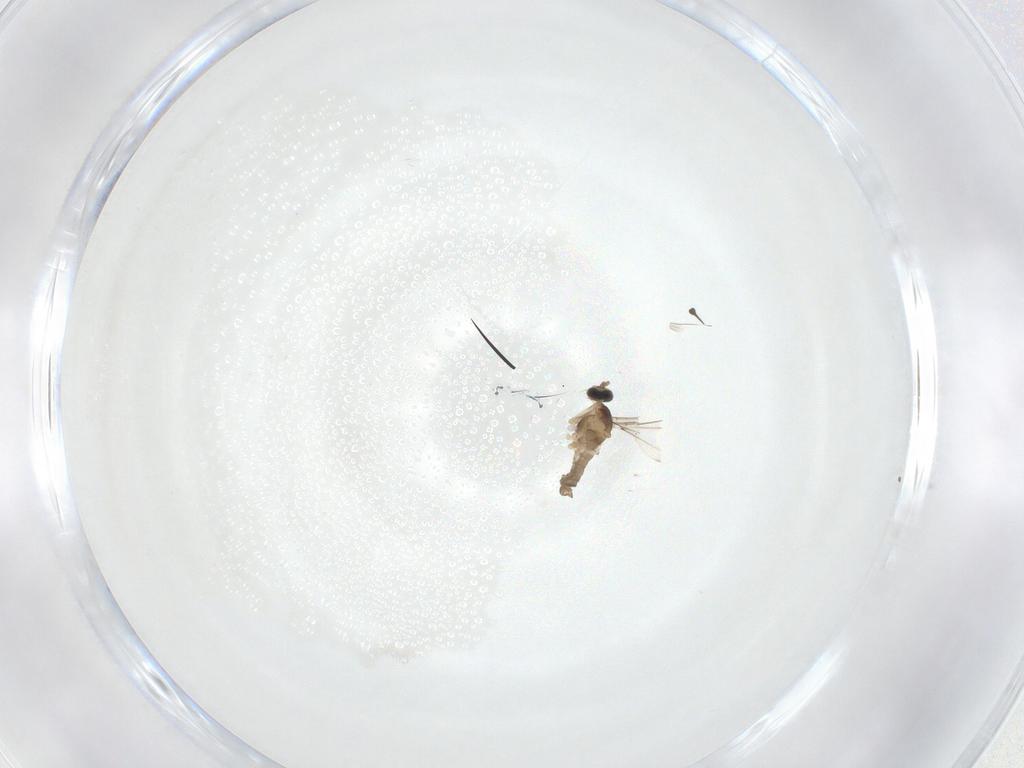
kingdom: Animalia
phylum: Arthropoda
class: Insecta
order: Diptera
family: Cecidomyiidae
